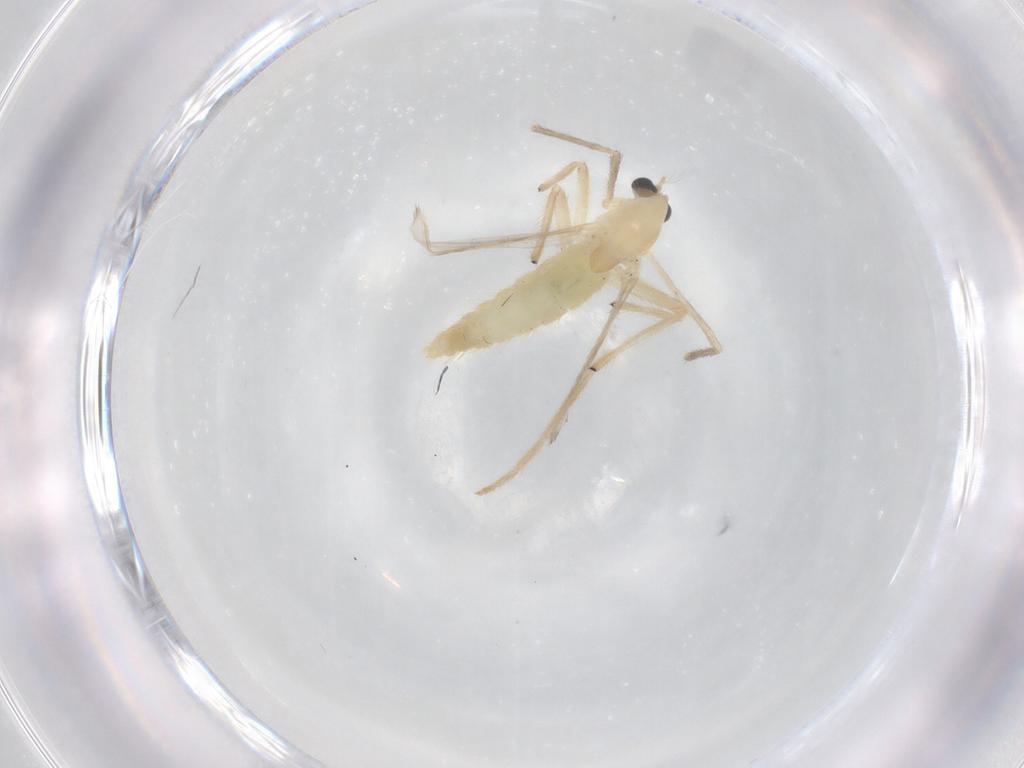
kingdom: Animalia
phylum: Arthropoda
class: Insecta
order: Diptera
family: Chironomidae
